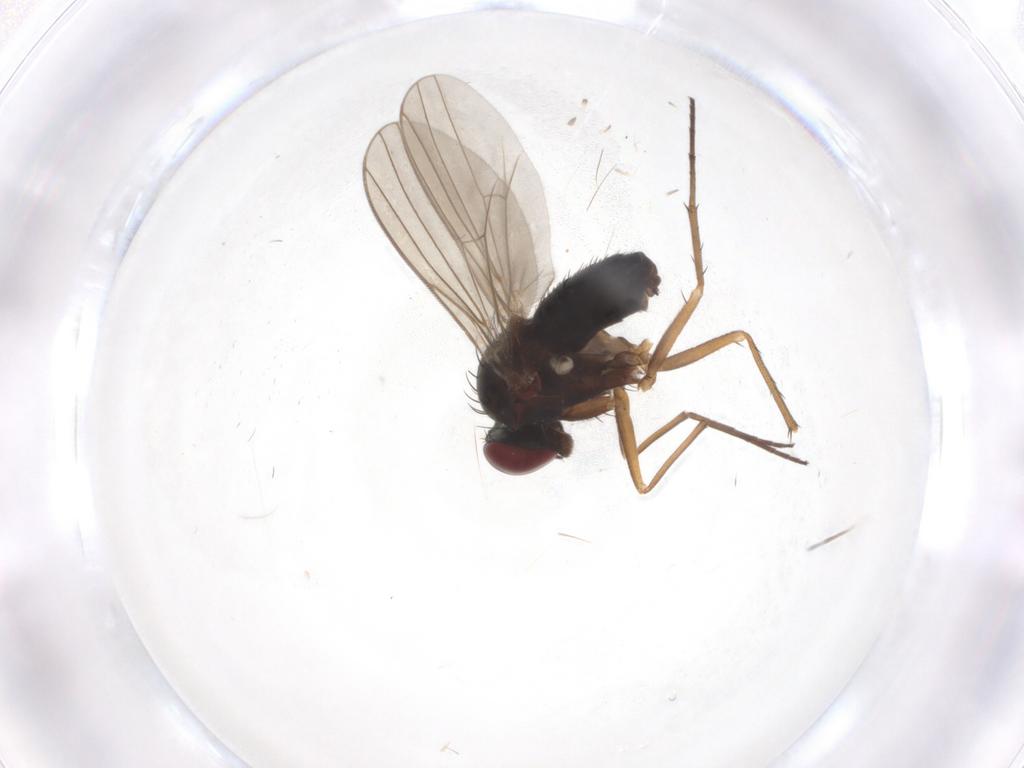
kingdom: Animalia
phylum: Arthropoda
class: Insecta
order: Diptera
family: Dolichopodidae
